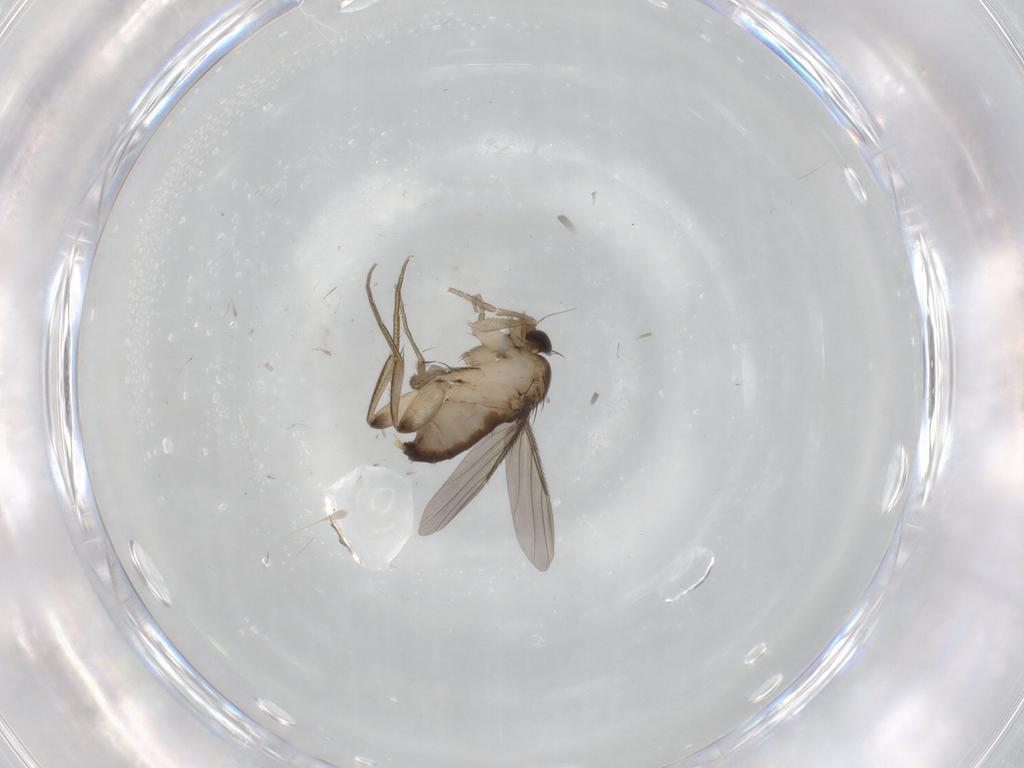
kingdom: Animalia
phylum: Arthropoda
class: Insecta
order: Diptera
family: Phoridae
